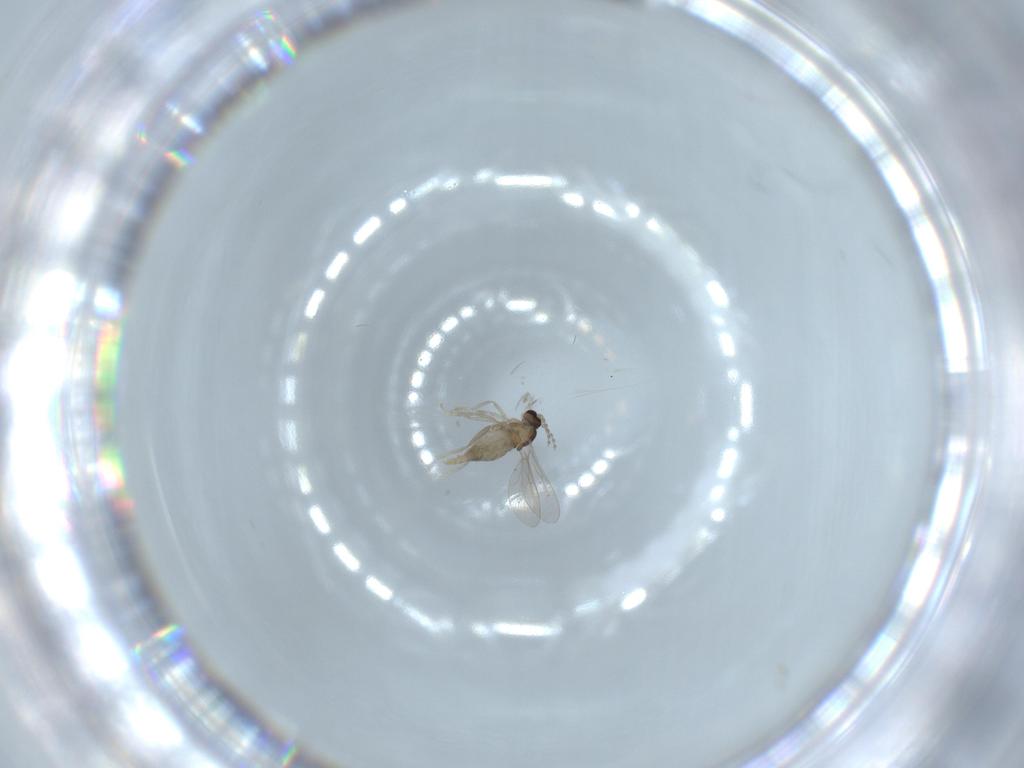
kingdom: Animalia
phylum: Arthropoda
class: Insecta
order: Diptera
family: Cecidomyiidae
